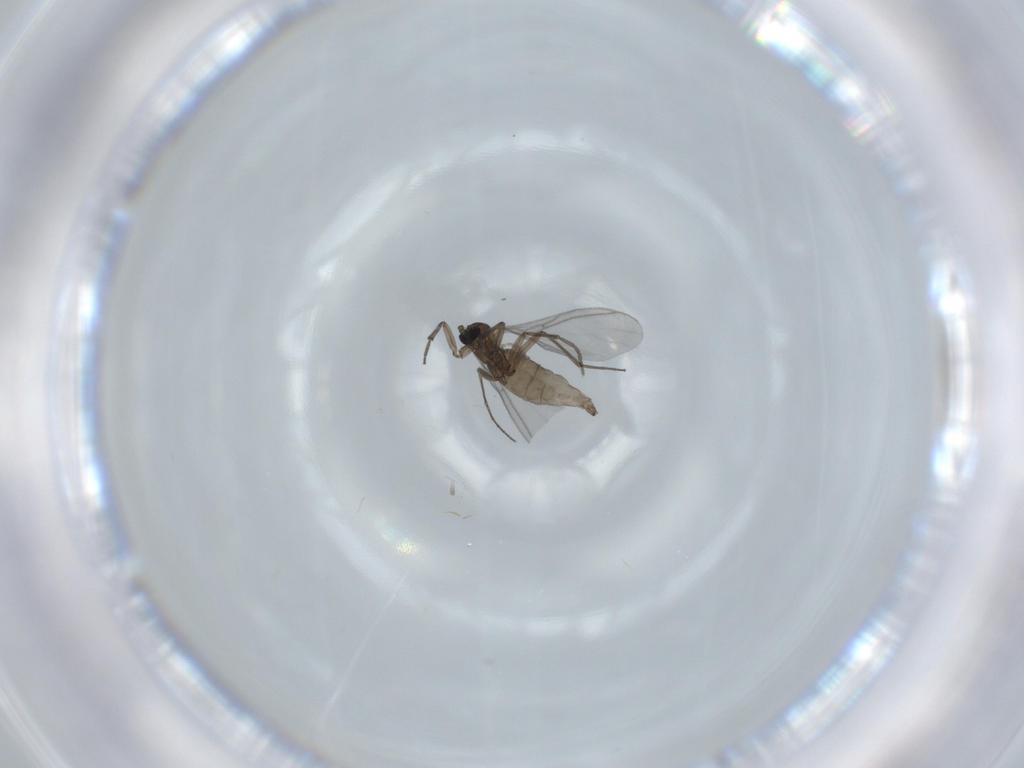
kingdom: Animalia
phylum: Arthropoda
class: Insecta
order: Diptera
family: Sciaridae
